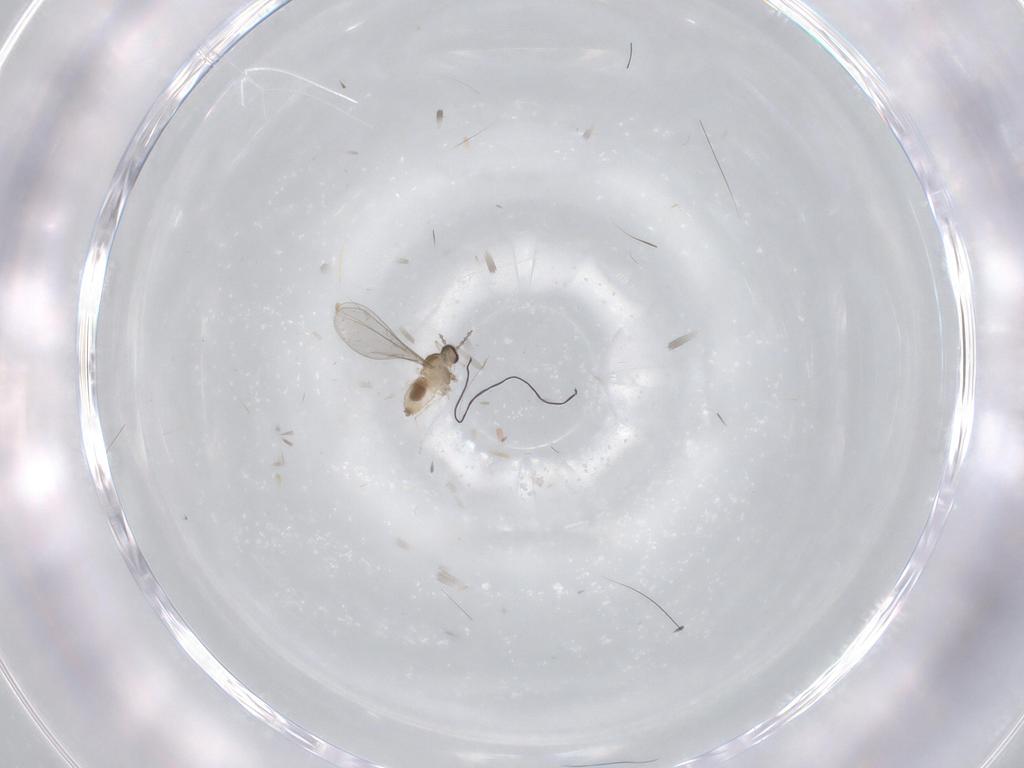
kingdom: Animalia
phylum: Arthropoda
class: Insecta
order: Diptera
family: Cecidomyiidae
